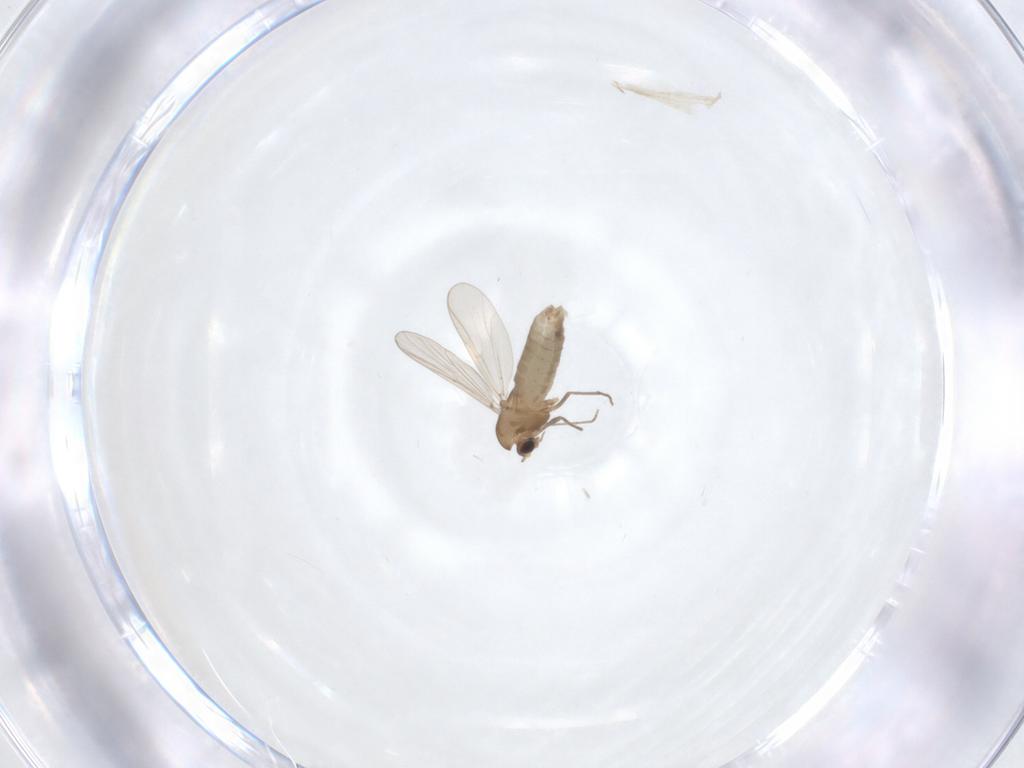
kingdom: Animalia
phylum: Arthropoda
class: Insecta
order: Diptera
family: Chironomidae
